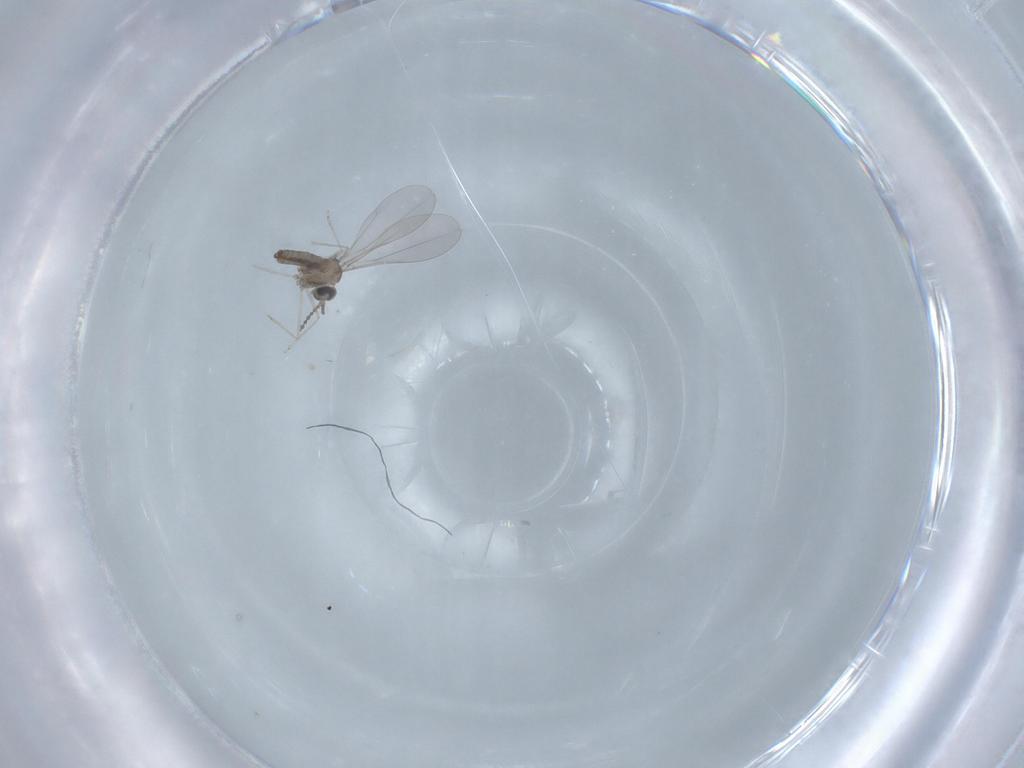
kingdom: Animalia
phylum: Arthropoda
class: Insecta
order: Diptera
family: Cecidomyiidae
